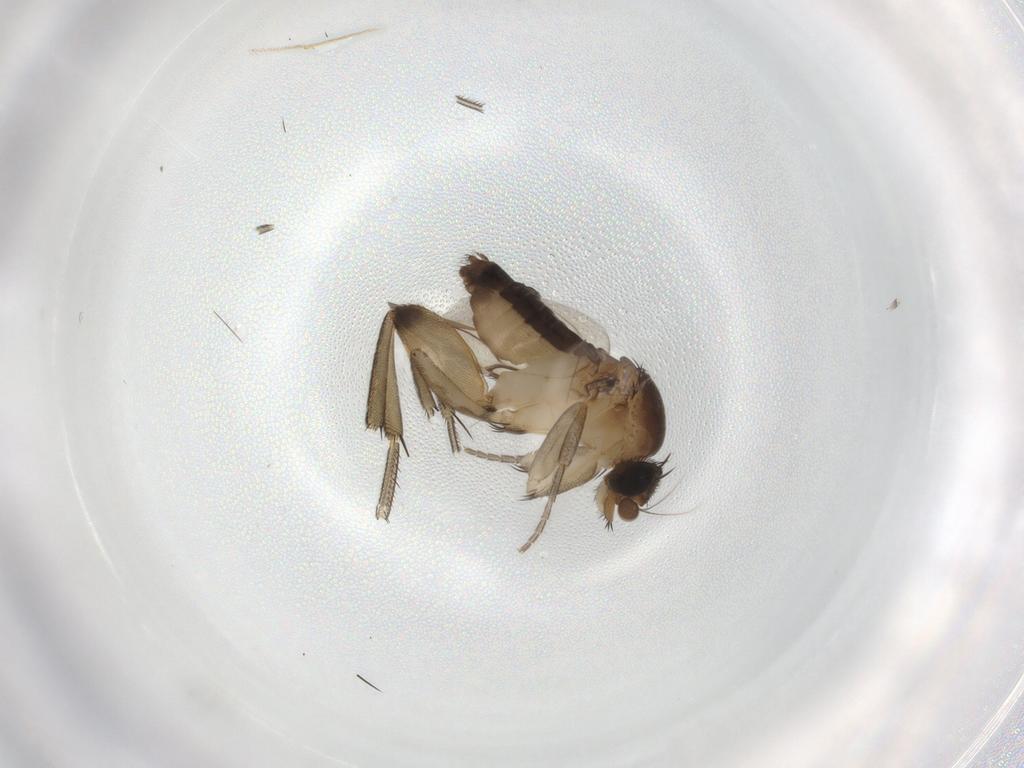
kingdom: Animalia
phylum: Arthropoda
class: Insecta
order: Diptera
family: Phoridae
